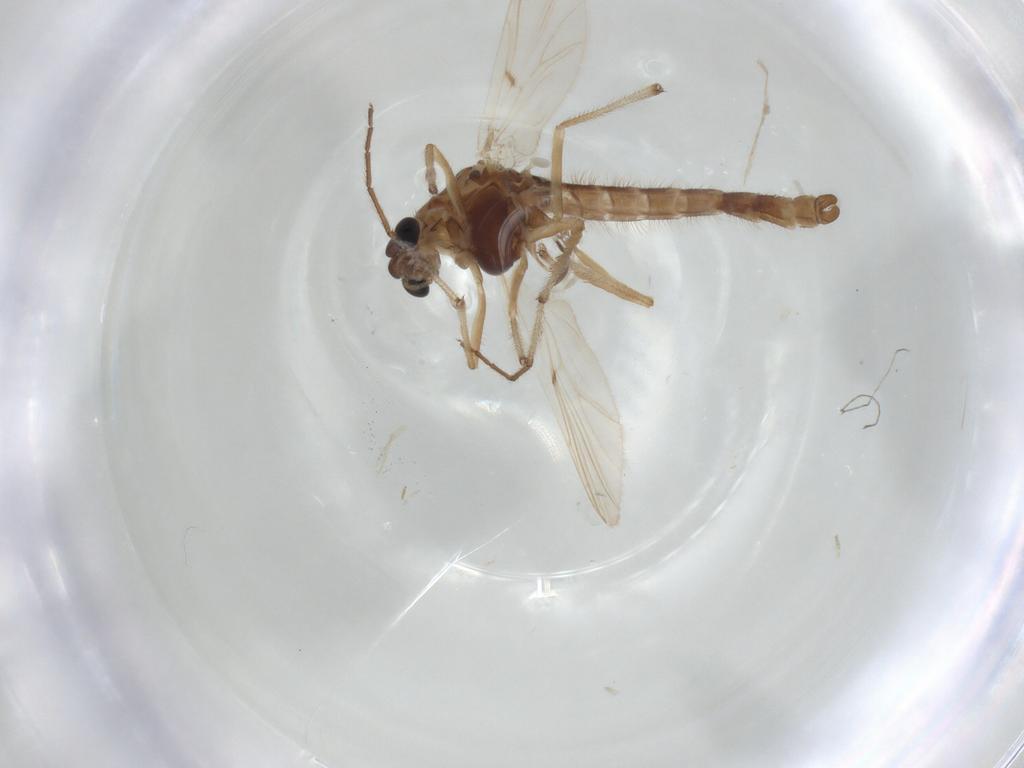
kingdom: Animalia
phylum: Arthropoda
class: Insecta
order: Diptera
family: Chironomidae
